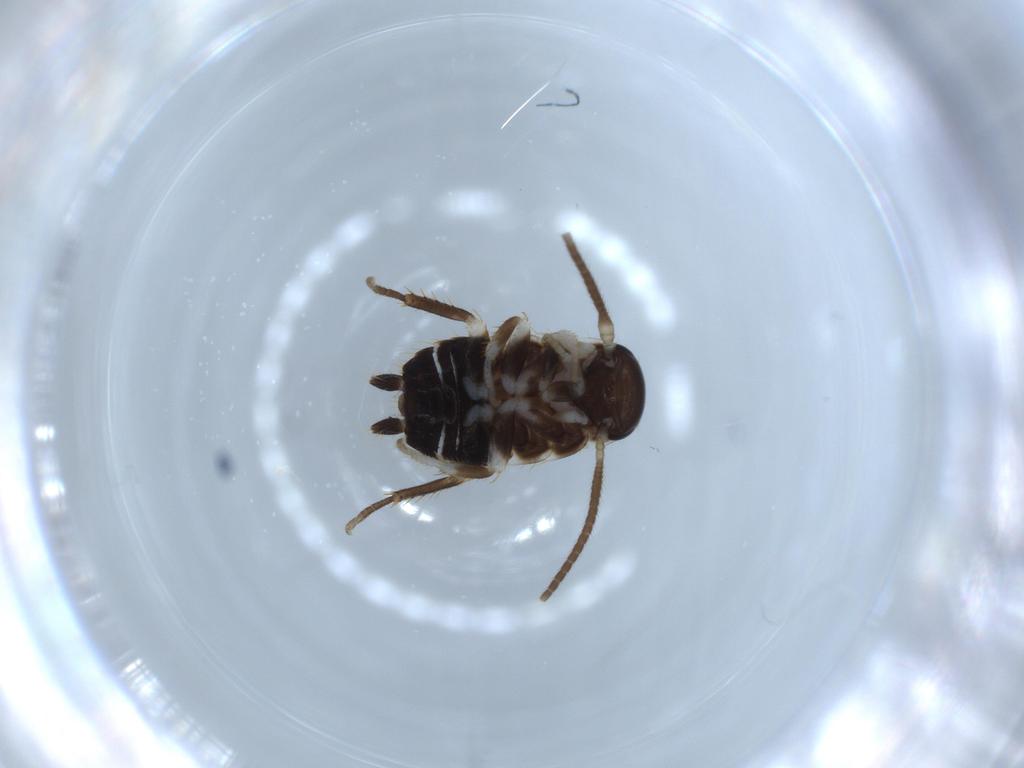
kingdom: Animalia
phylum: Arthropoda
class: Insecta
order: Blattodea
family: Ectobiidae
